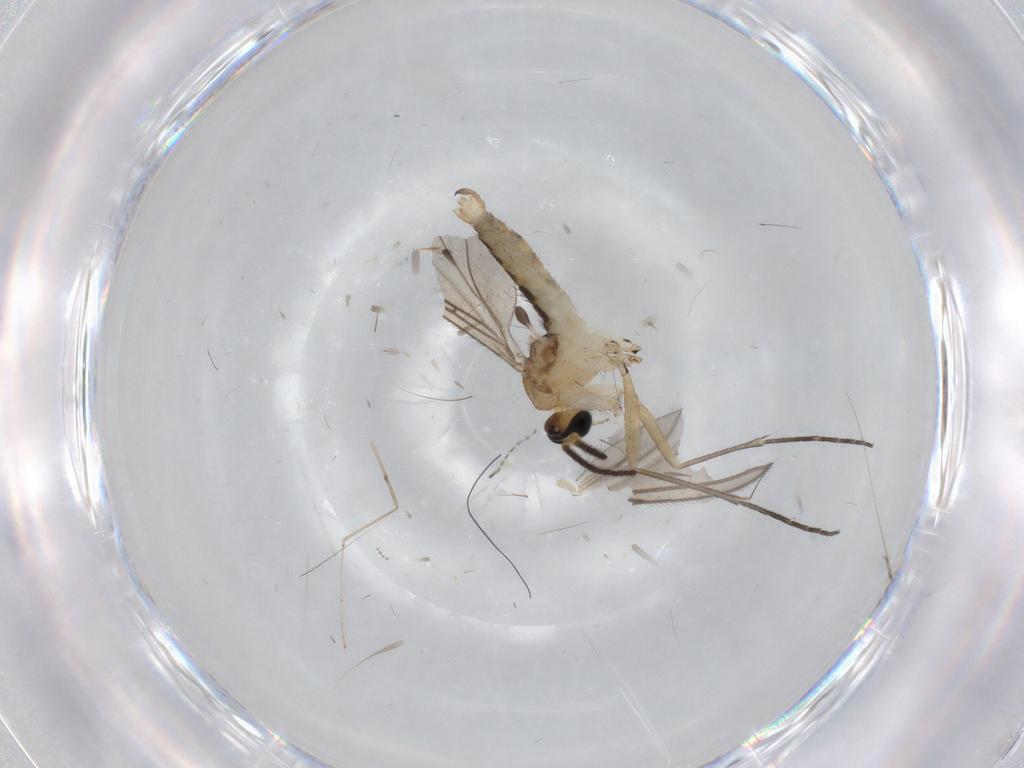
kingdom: Animalia
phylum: Arthropoda
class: Insecta
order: Diptera
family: Sciaridae
